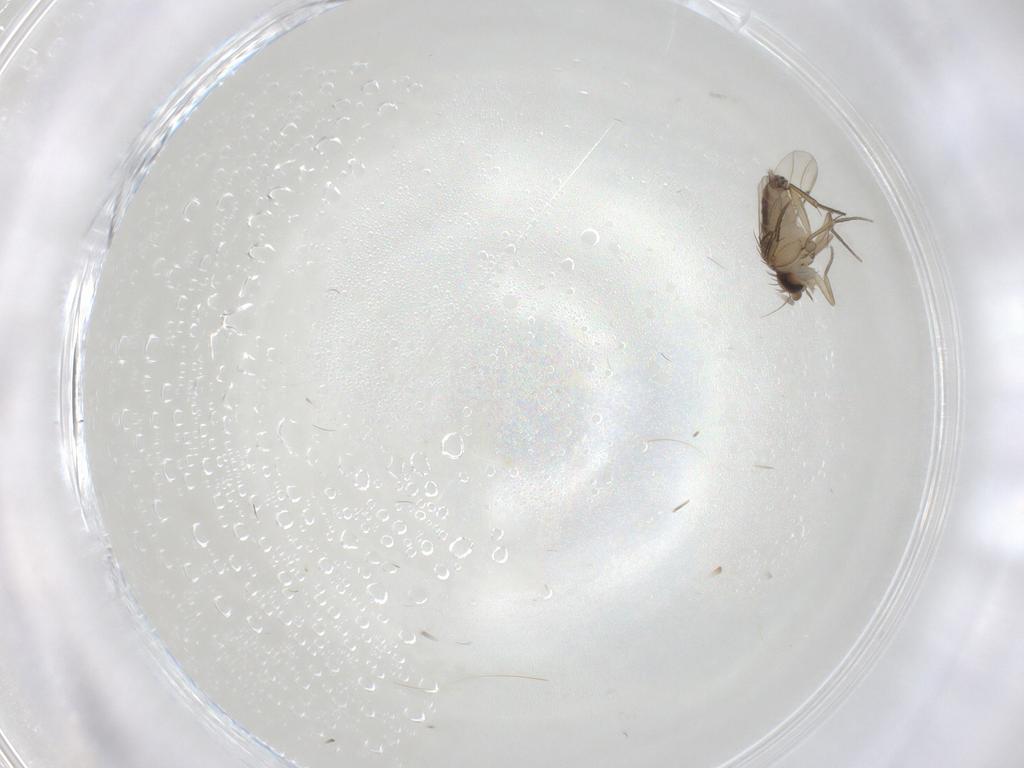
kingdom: Animalia
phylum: Arthropoda
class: Insecta
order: Diptera
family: Phoridae
